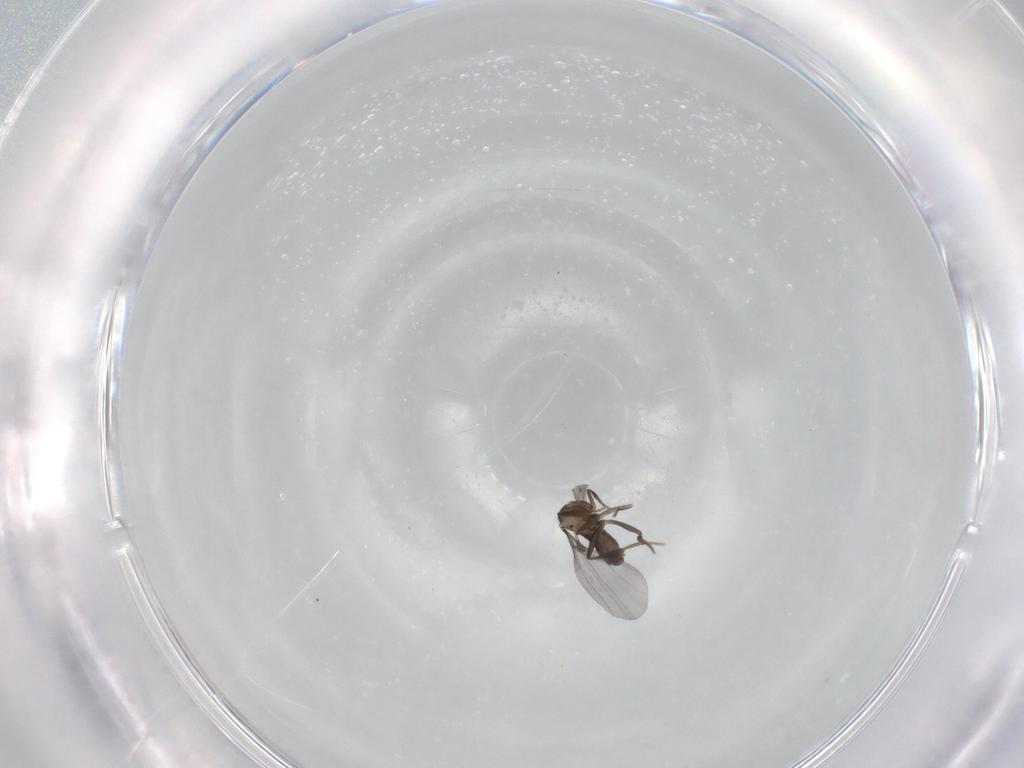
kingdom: Animalia
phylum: Arthropoda
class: Insecta
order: Diptera
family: Phoridae
